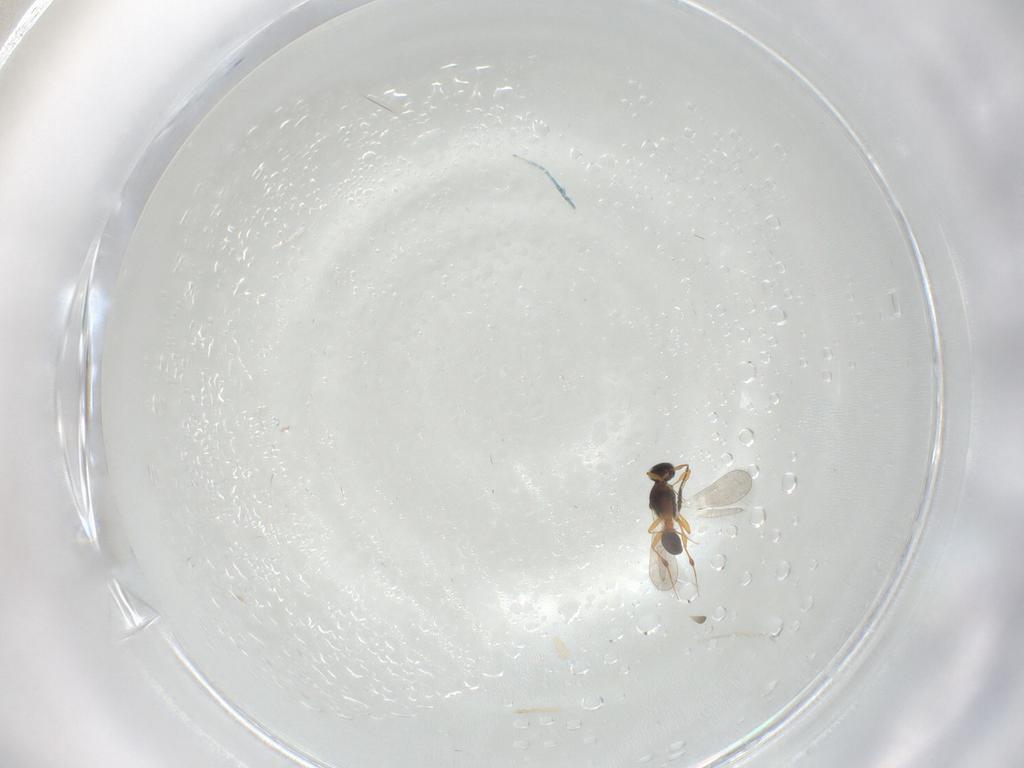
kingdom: Animalia
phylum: Arthropoda
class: Insecta
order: Hymenoptera
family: Platygastridae
